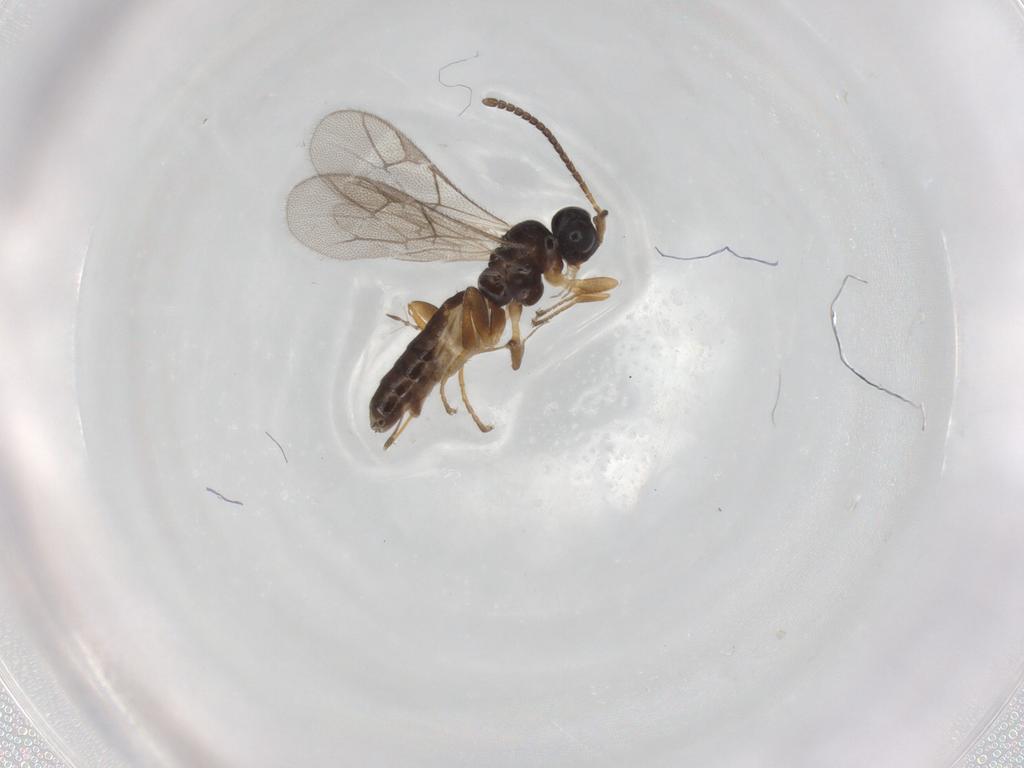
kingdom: Animalia
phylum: Arthropoda
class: Insecta
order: Hymenoptera
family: Ichneumonidae
